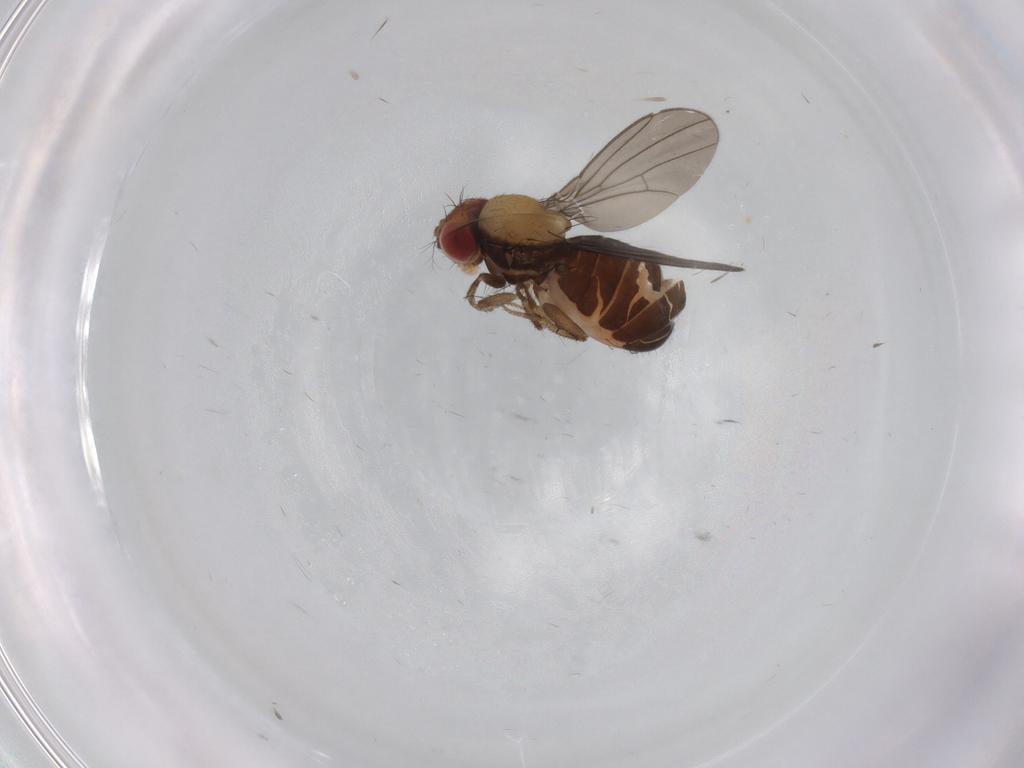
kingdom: Animalia
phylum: Arthropoda
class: Insecta
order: Diptera
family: Drosophilidae
